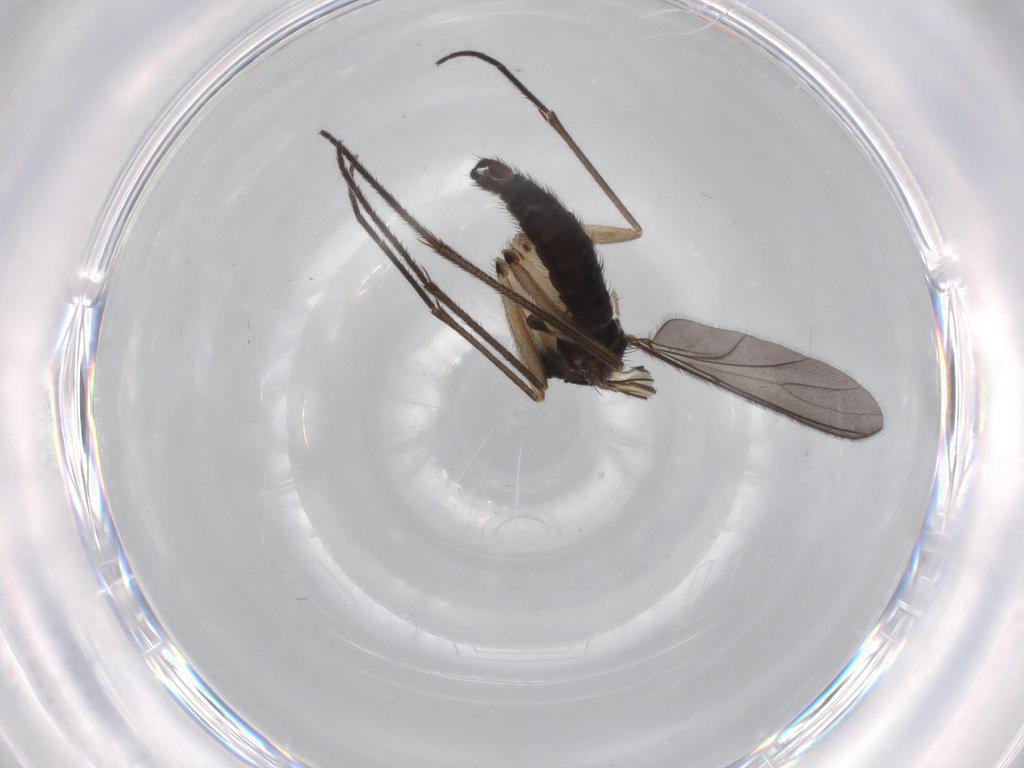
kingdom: Animalia
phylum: Arthropoda
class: Insecta
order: Diptera
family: Sciaridae
